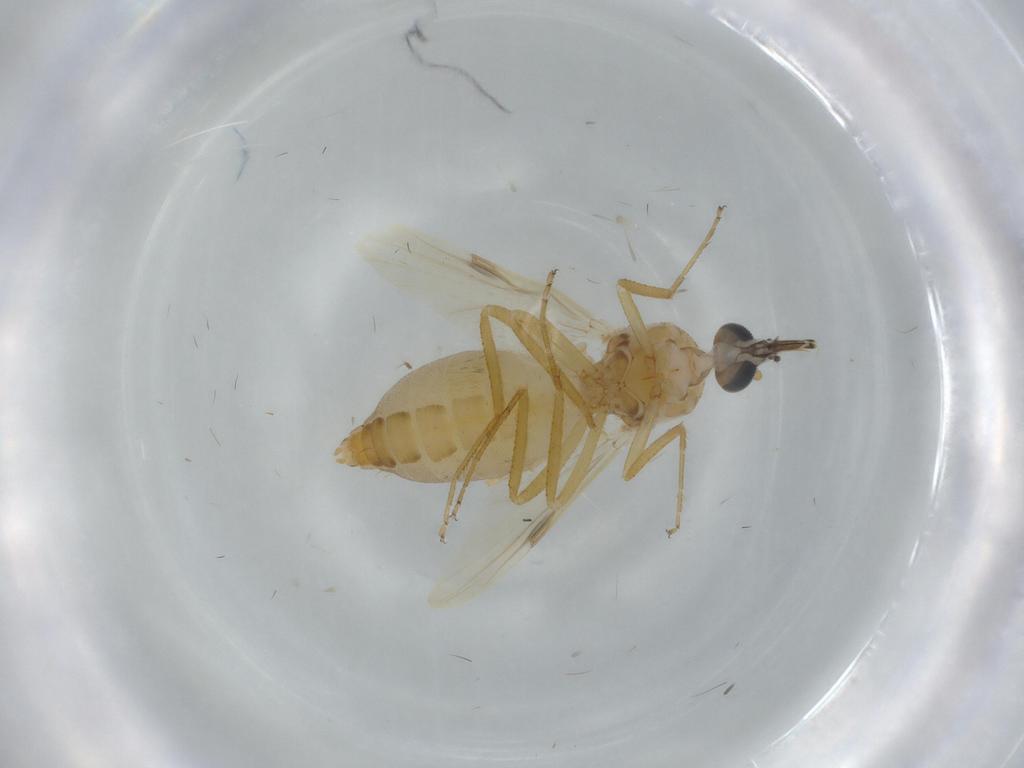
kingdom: Animalia
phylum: Arthropoda
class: Insecta
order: Diptera
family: Ceratopogonidae
